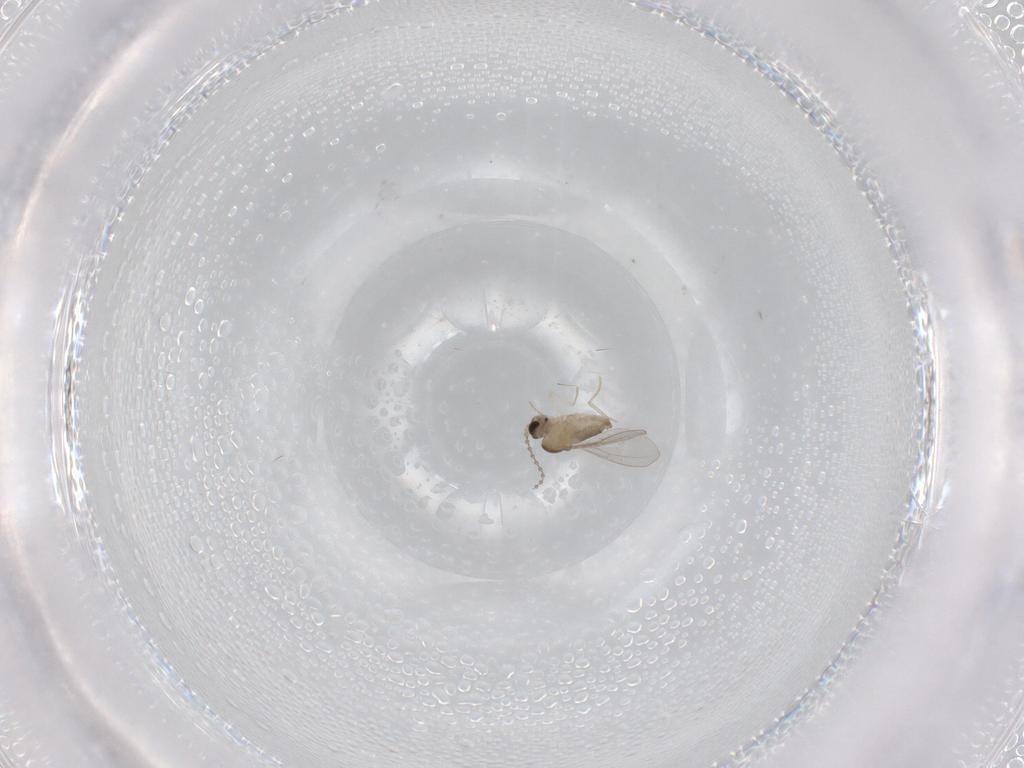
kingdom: Animalia
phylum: Arthropoda
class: Insecta
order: Diptera
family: Cecidomyiidae
